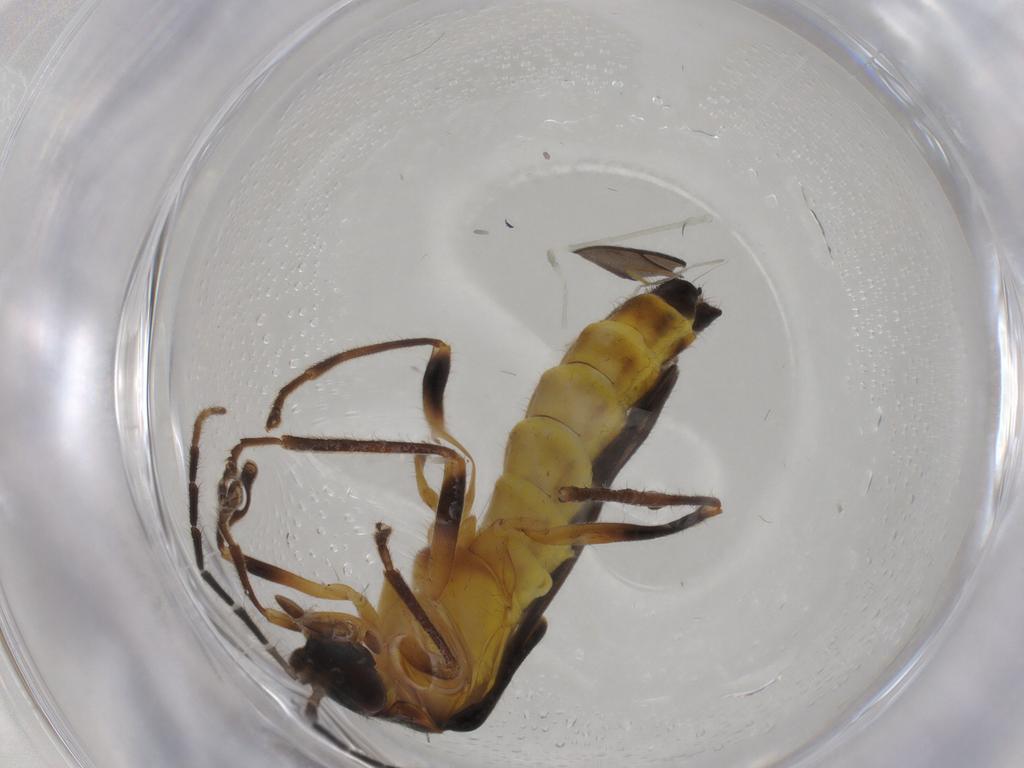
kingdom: Animalia
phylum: Arthropoda
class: Insecta
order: Coleoptera
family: Cantharidae
